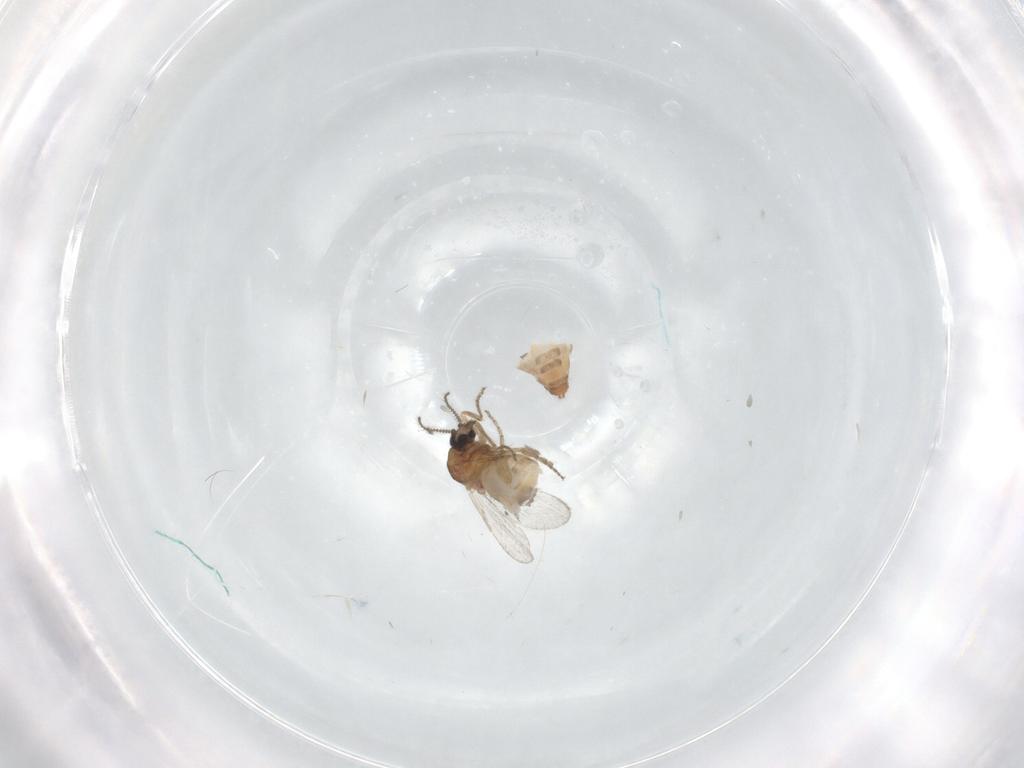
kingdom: Animalia
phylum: Arthropoda
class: Insecta
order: Diptera
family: Ceratopogonidae
